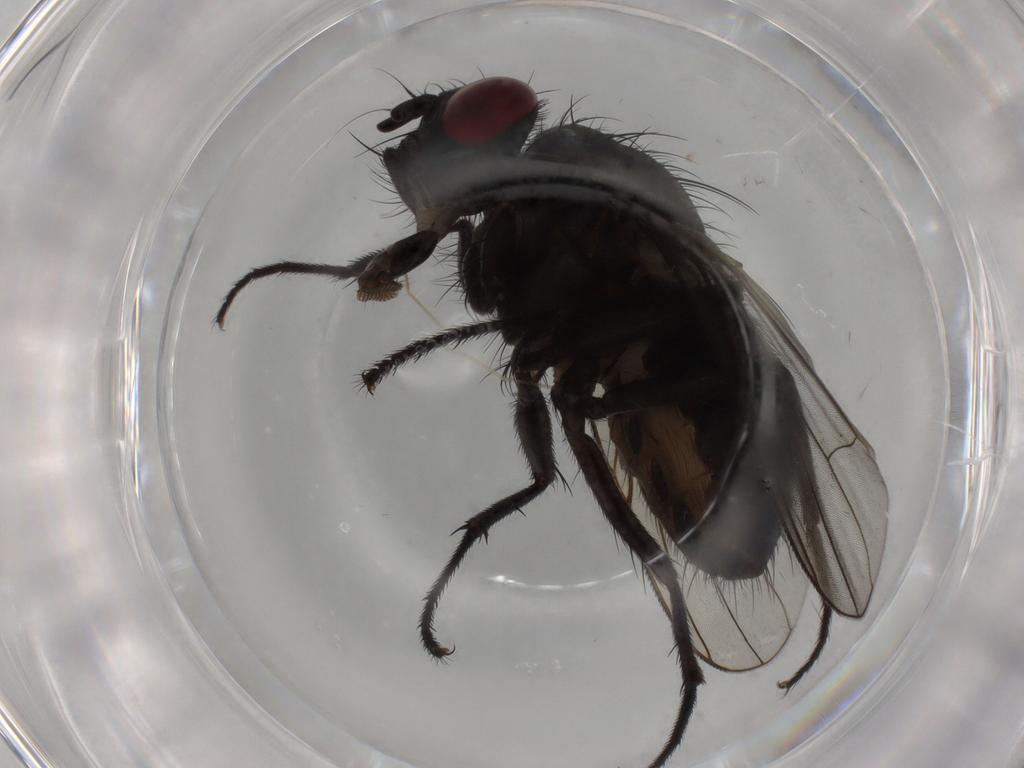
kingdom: Animalia
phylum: Arthropoda
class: Insecta
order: Diptera
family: Muscidae
